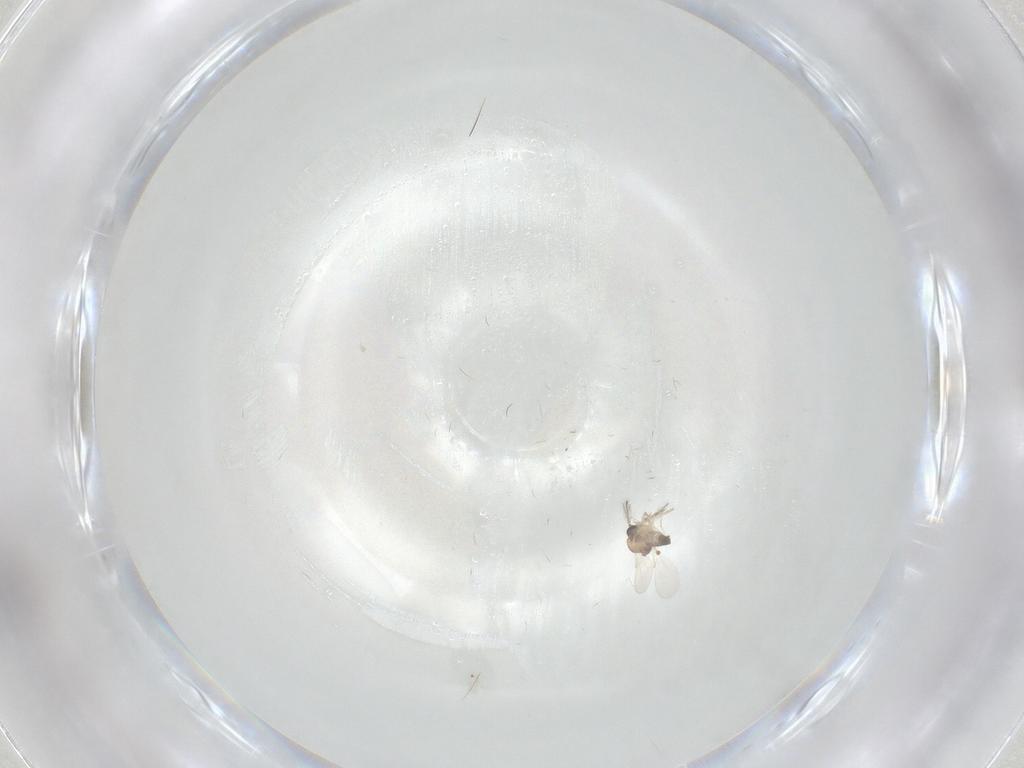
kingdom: Animalia
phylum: Arthropoda
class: Insecta
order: Diptera
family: Ceratopogonidae
